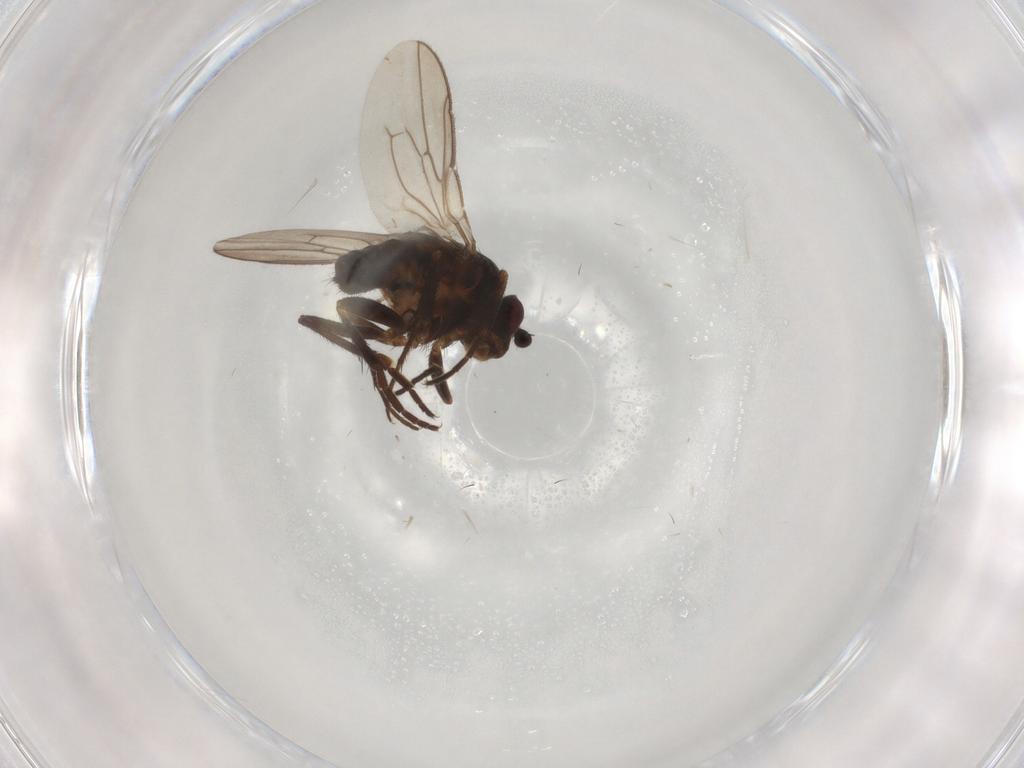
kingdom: Animalia
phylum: Arthropoda
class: Insecta
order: Diptera
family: Sphaeroceridae
